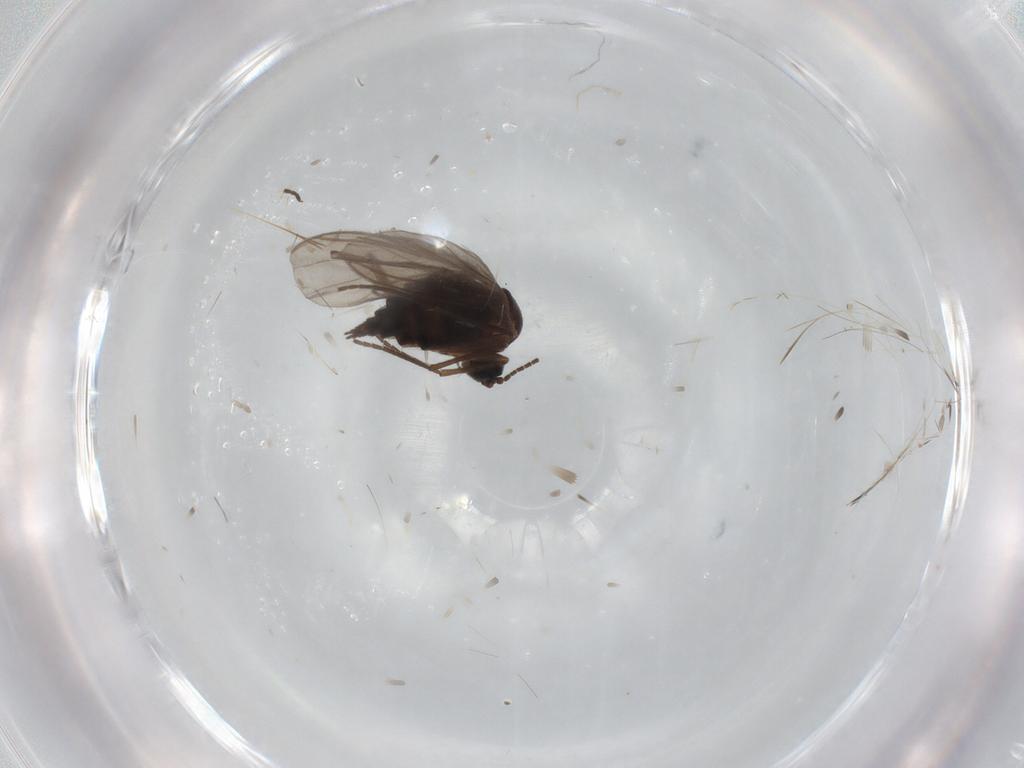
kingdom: Animalia
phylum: Arthropoda
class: Insecta
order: Diptera
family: Sciaridae
